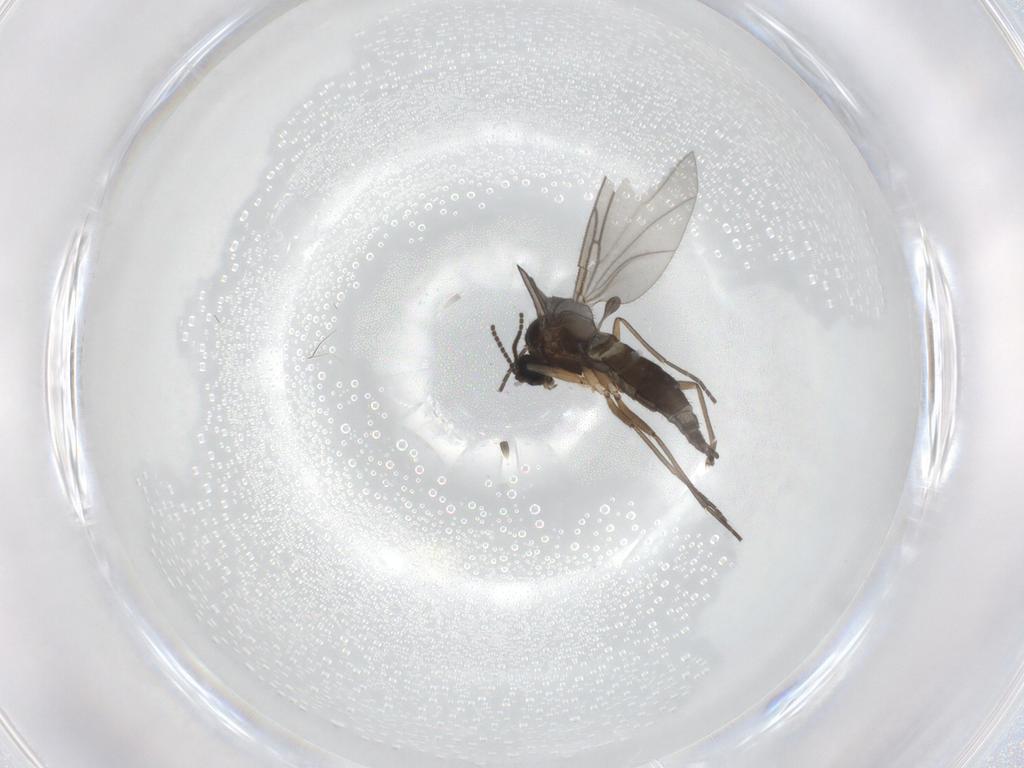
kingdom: Animalia
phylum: Arthropoda
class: Insecta
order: Diptera
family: Sciaridae
